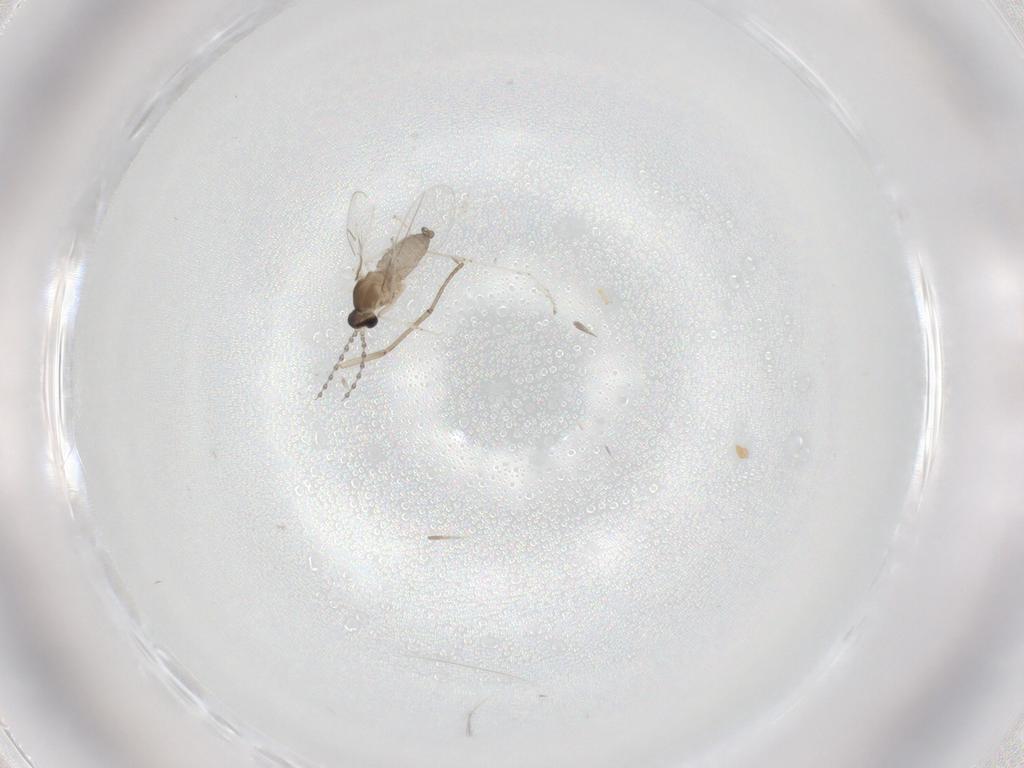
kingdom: Animalia
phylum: Arthropoda
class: Insecta
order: Diptera
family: Cecidomyiidae
